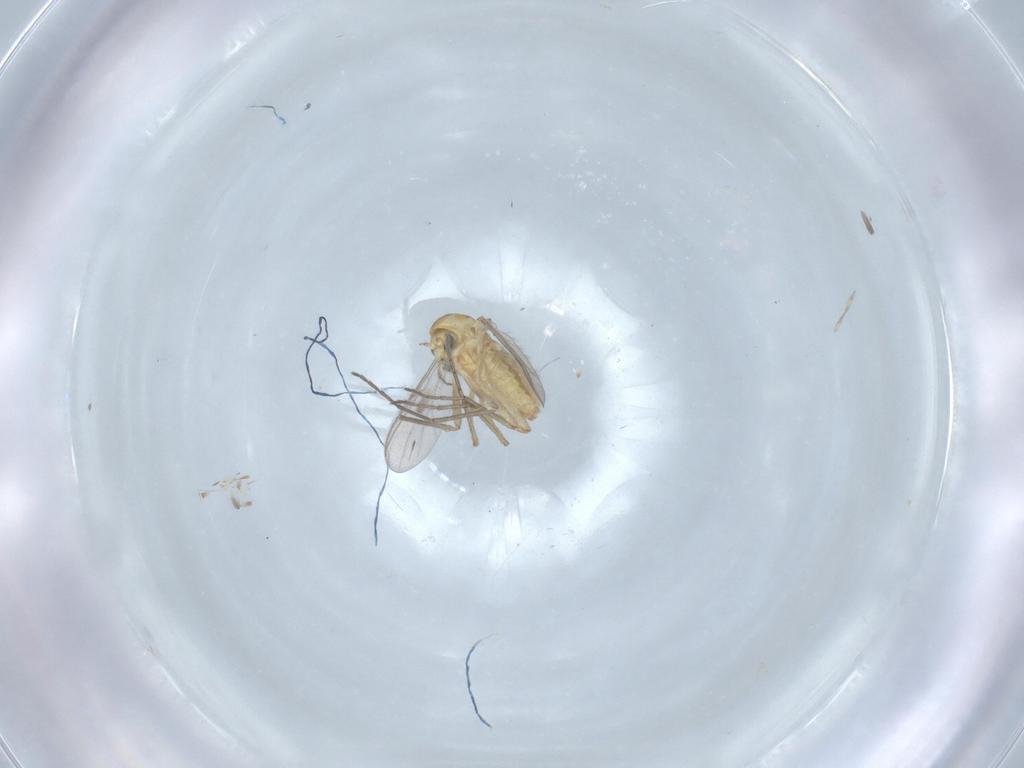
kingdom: Animalia
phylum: Arthropoda
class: Insecta
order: Diptera
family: Chironomidae
